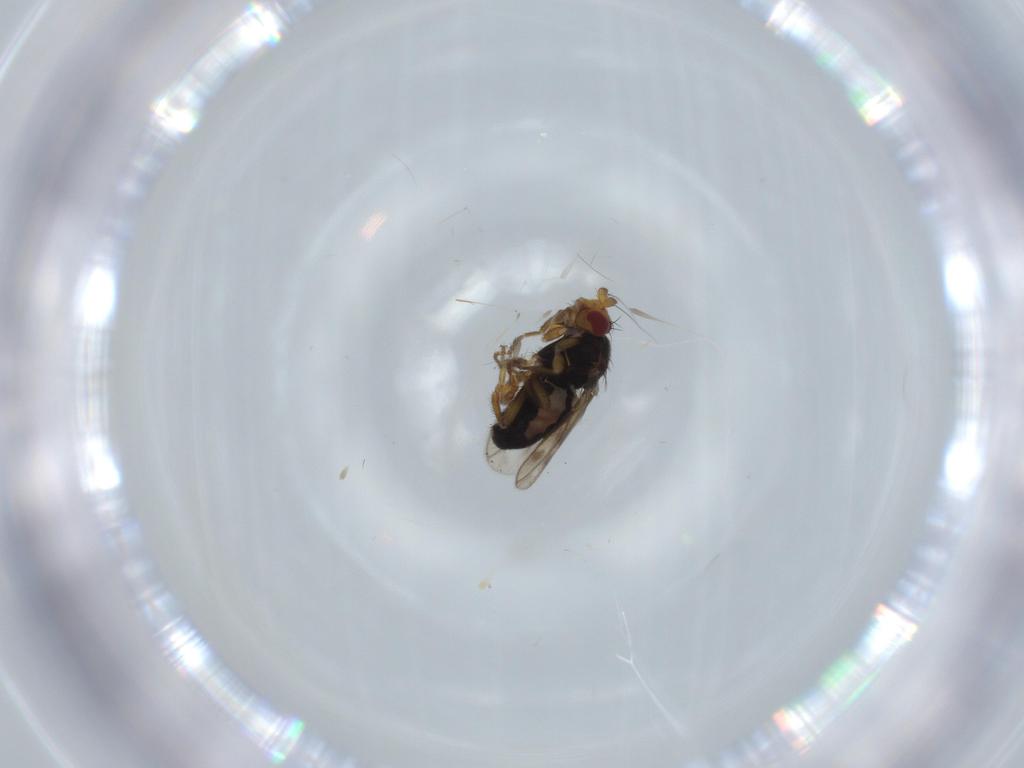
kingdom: Animalia
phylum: Arthropoda
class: Insecta
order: Diptera
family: Sphaeroceridae
